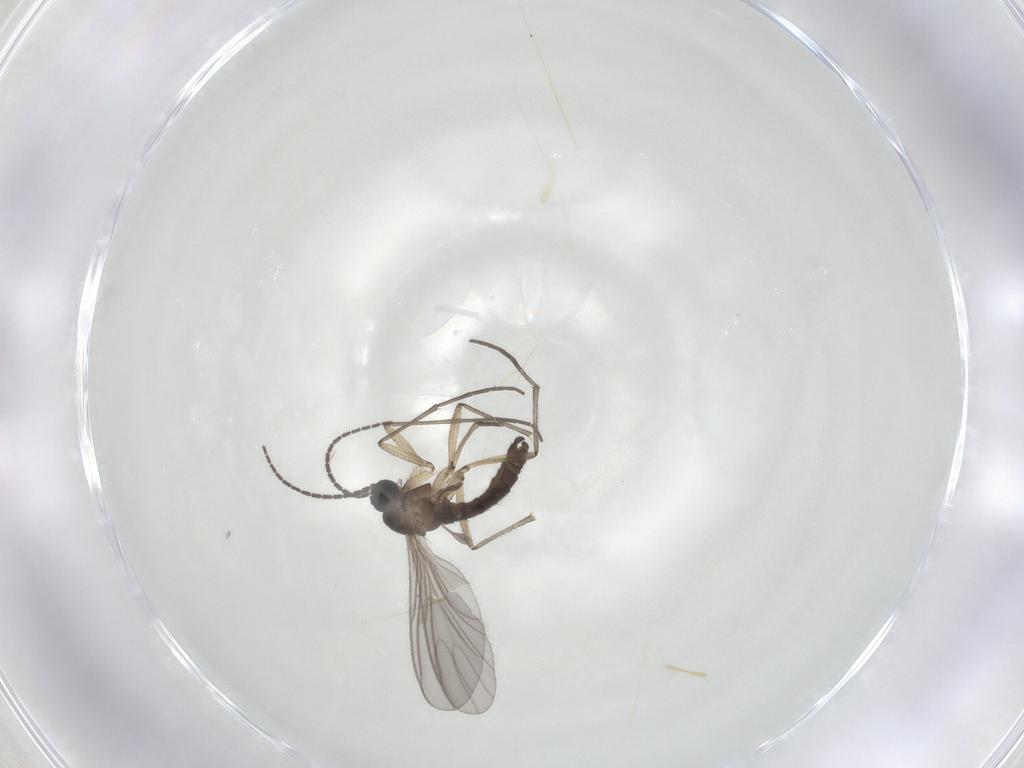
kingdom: Animalia
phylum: Arthropoda
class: Insecta
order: Diptera
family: Sciaridae
